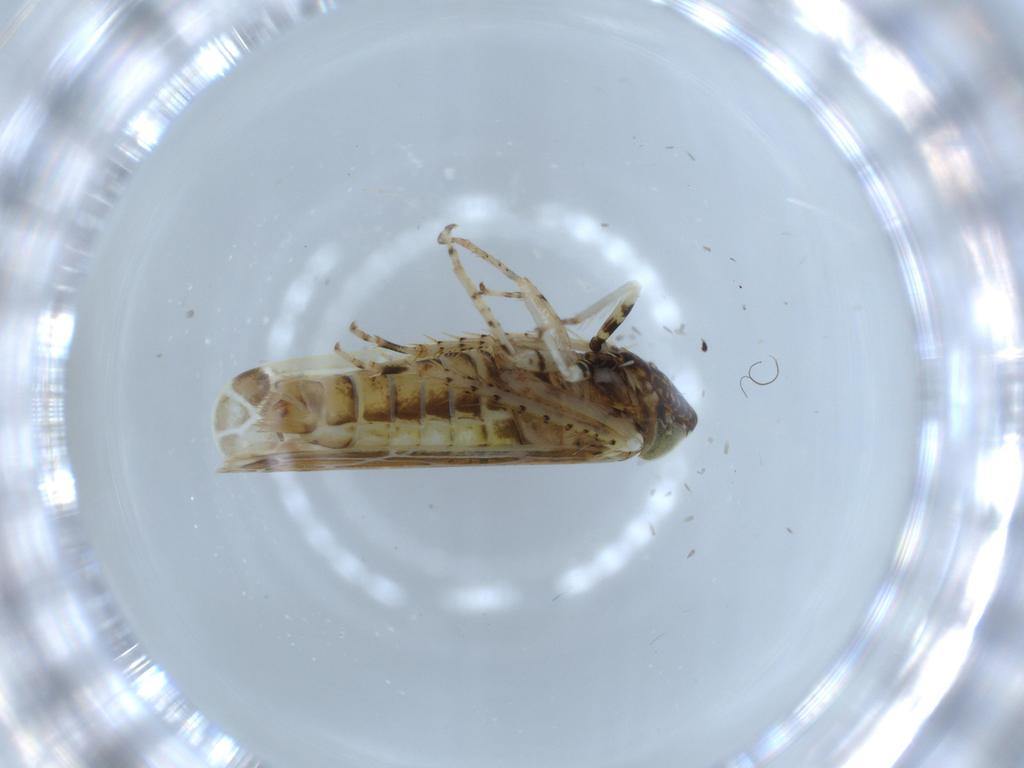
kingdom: Animalia
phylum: Arthropoda
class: Insecta
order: Hemiptera
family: Cicadellidae
